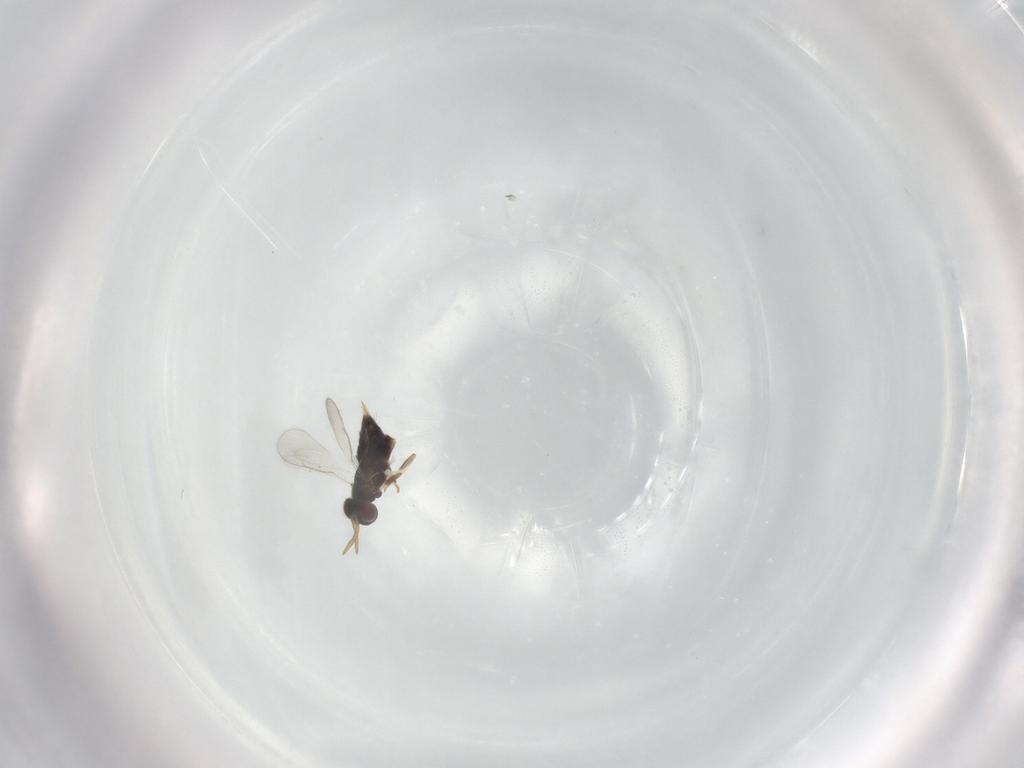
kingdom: Animalia
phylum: Arthropoda
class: Insecta
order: Hymenoptera
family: Aphelinidae
